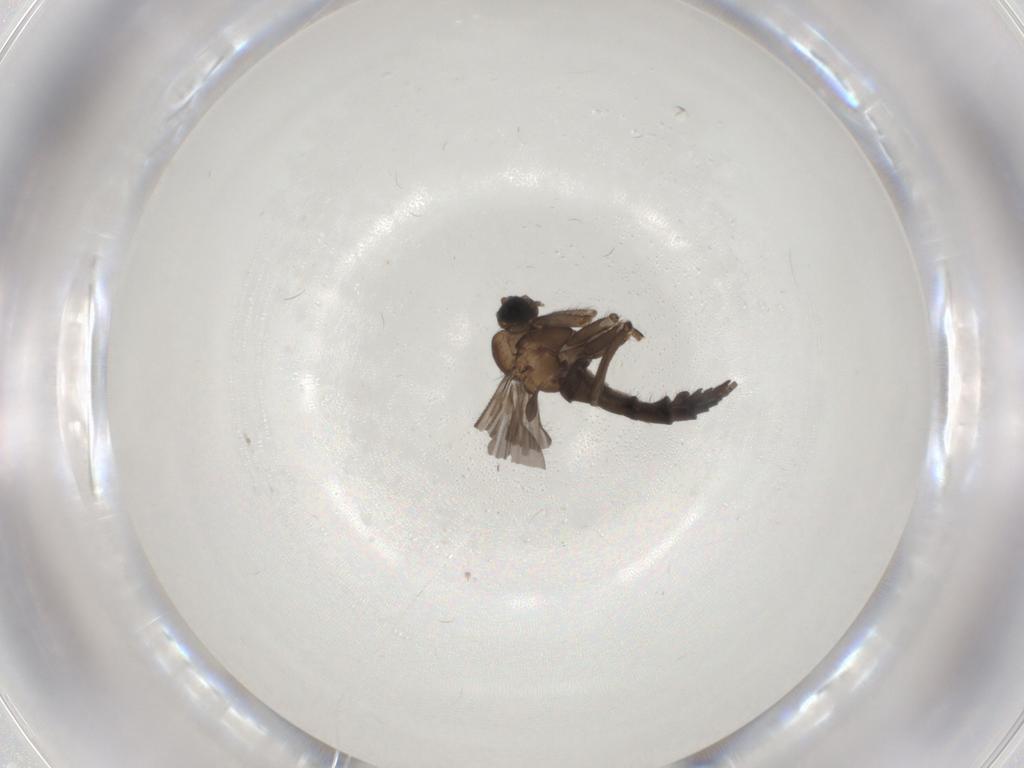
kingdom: Animalia
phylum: Arthropoda
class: Insecta
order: Diptera
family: Sciaridae
